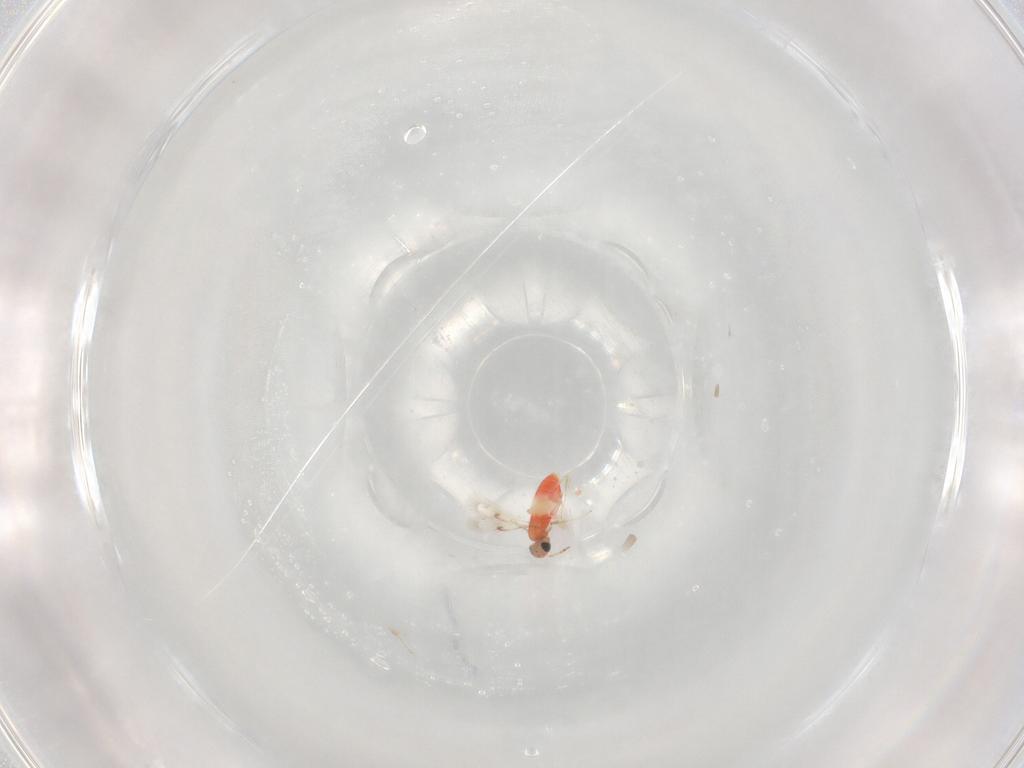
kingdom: Animalia
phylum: Arthropoda
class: Insecta
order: Hymenoptera
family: Trichogrammatidae
